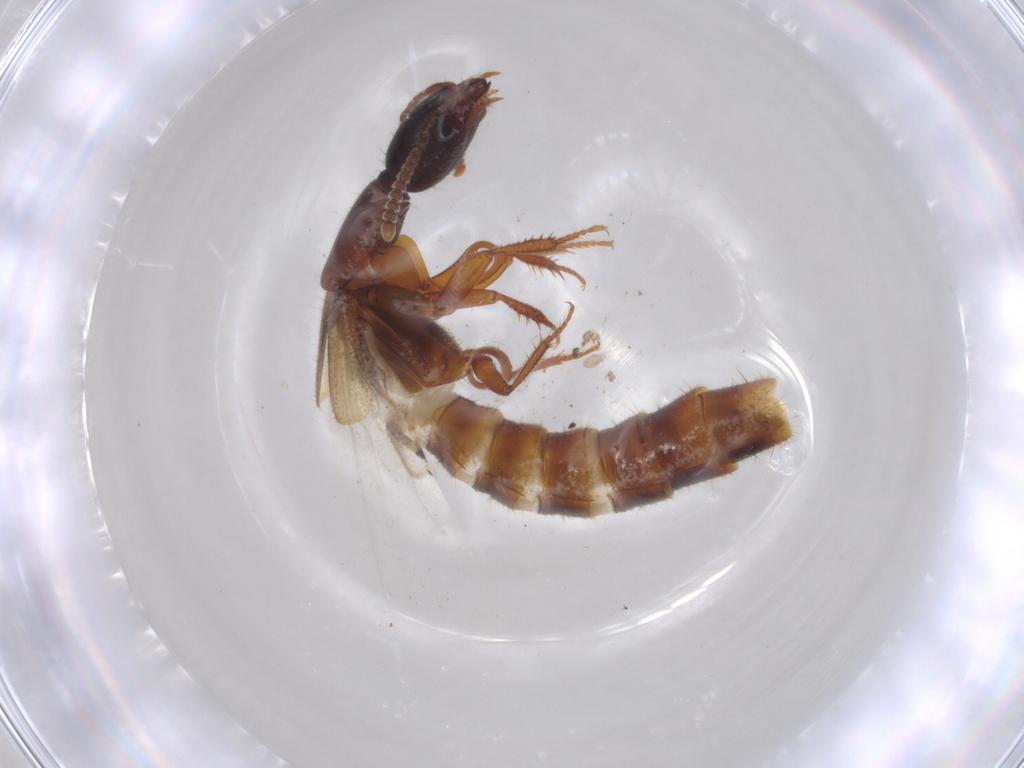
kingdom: Animalia
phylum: Arthropoda
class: Insecta
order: Coleoptera
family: Staphylinidae
